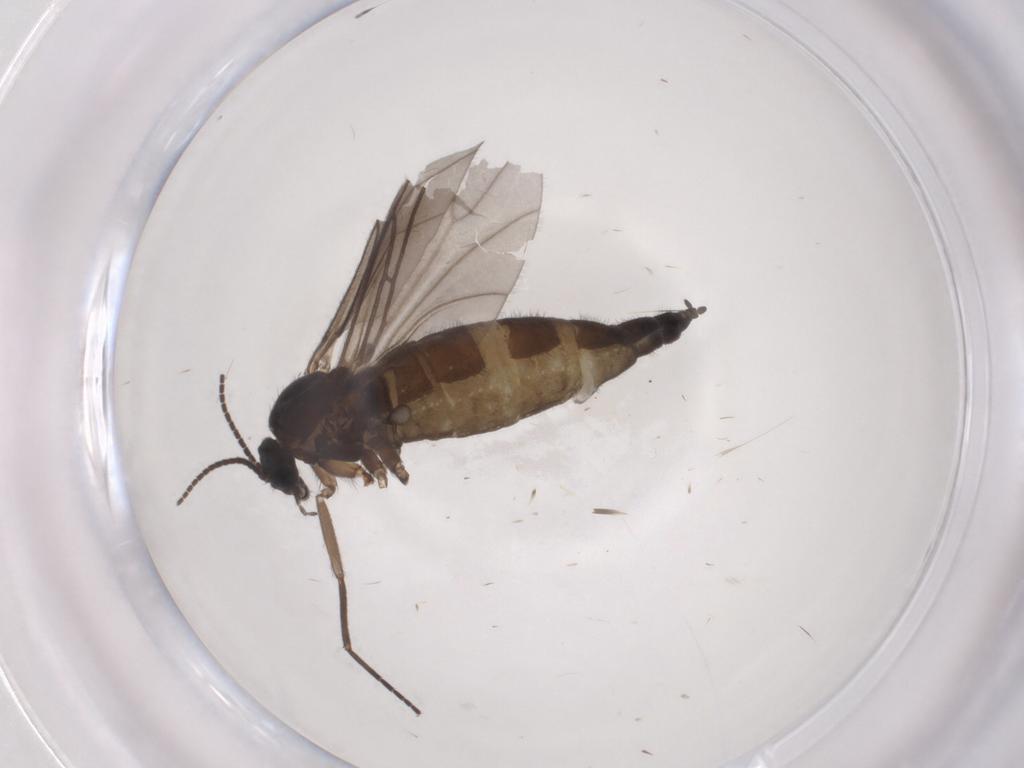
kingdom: Animalia
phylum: Arthropoda
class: Insecta
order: Diptera
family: Sciaridae
